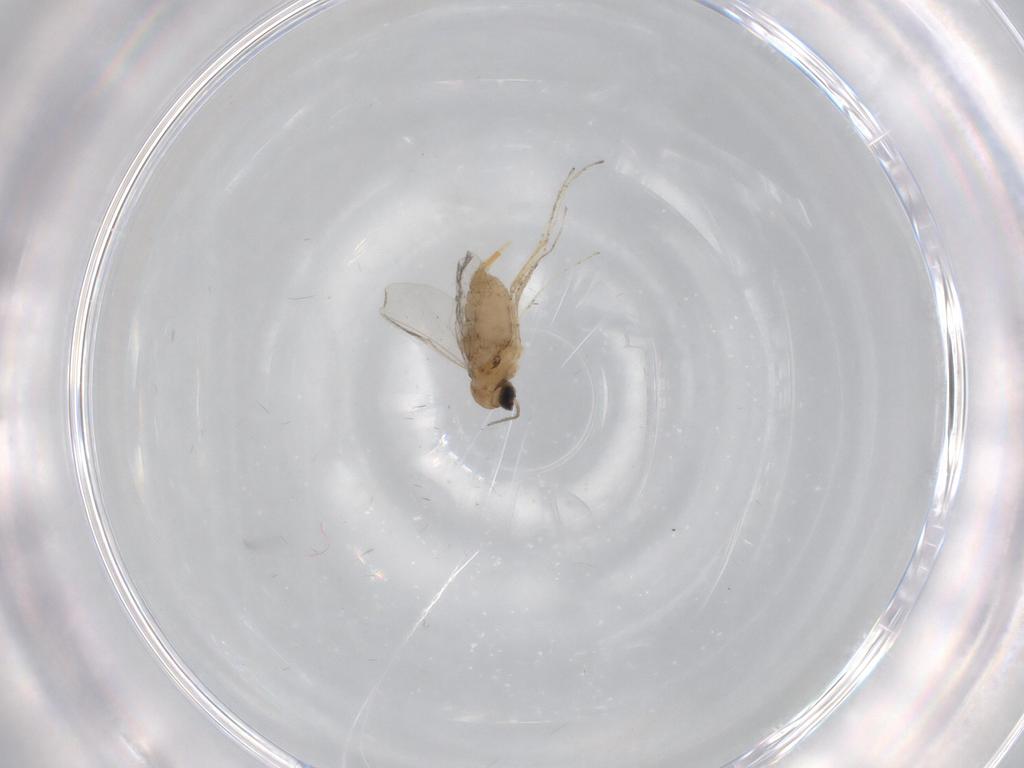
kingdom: Animalia
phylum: Arthropoda
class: Insecta
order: Diptera
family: Cecidomyiidae
